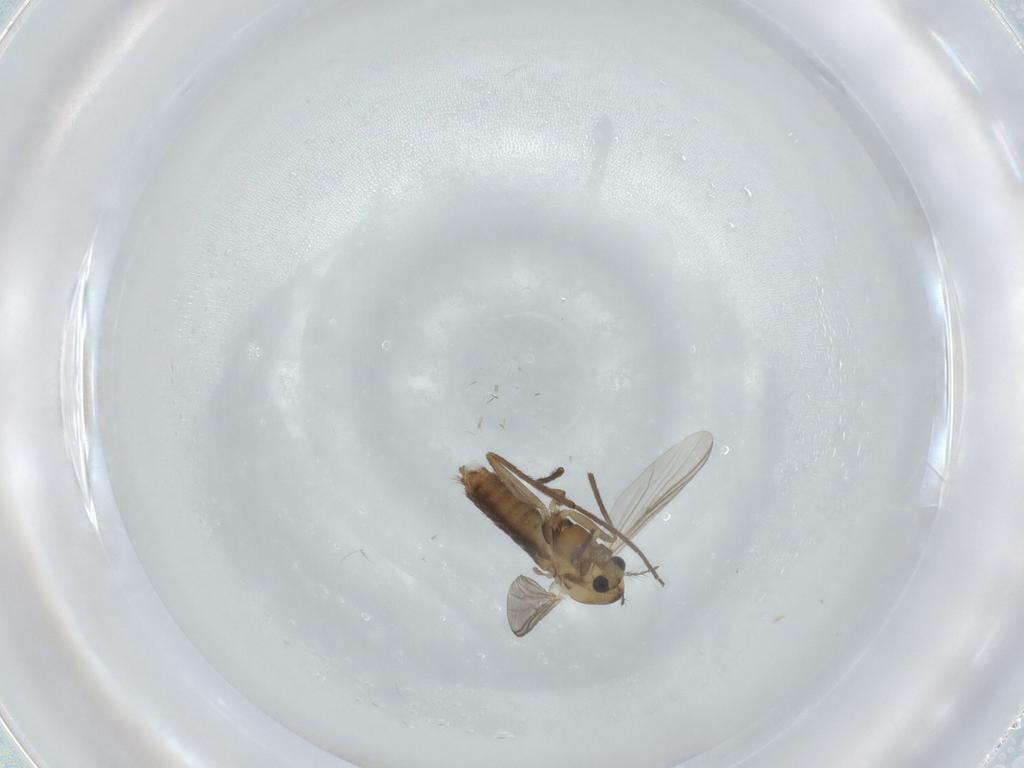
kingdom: Animalia
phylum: Arthropoda
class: Insecta
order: Diptera
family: Chironomidae
